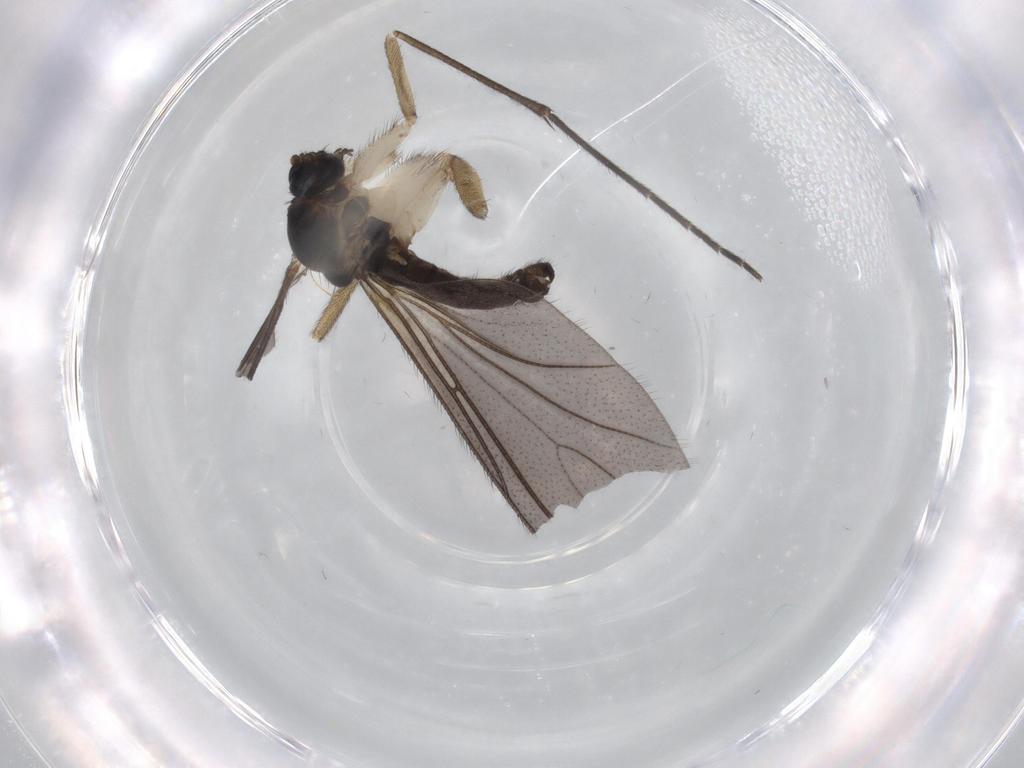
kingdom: Animalia
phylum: Arthropoda
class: Insecta
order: Diptera
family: Sciaridae
